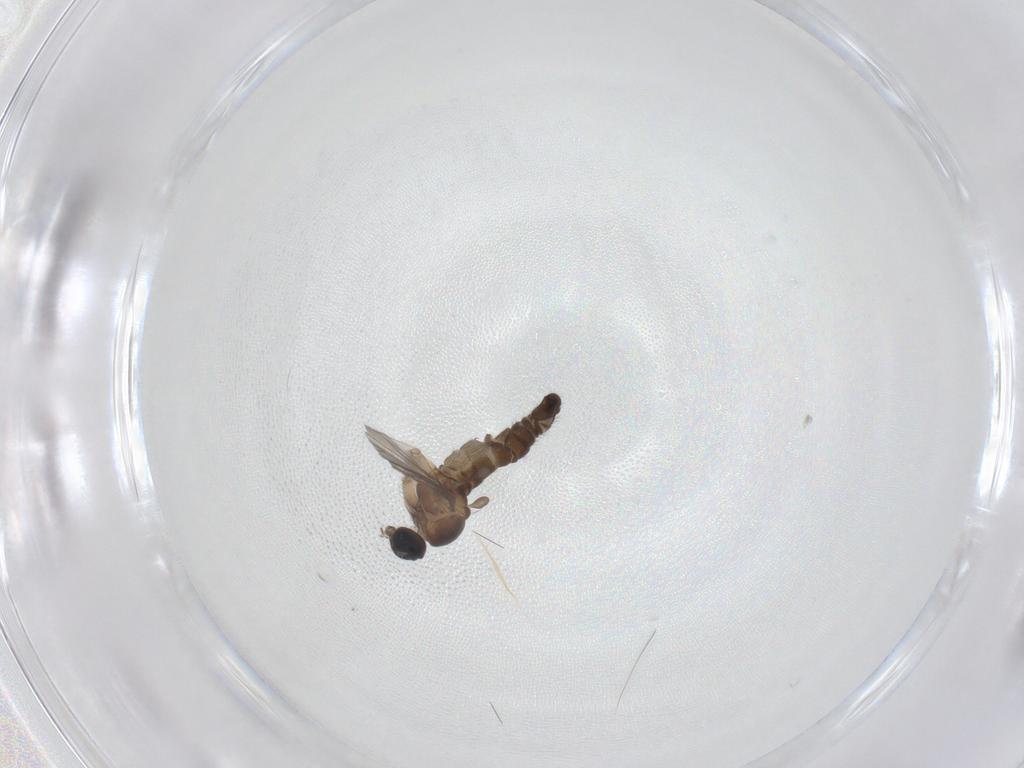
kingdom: Animalia
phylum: Arthropoda
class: Insecta
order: Diptera
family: Sciaridae
